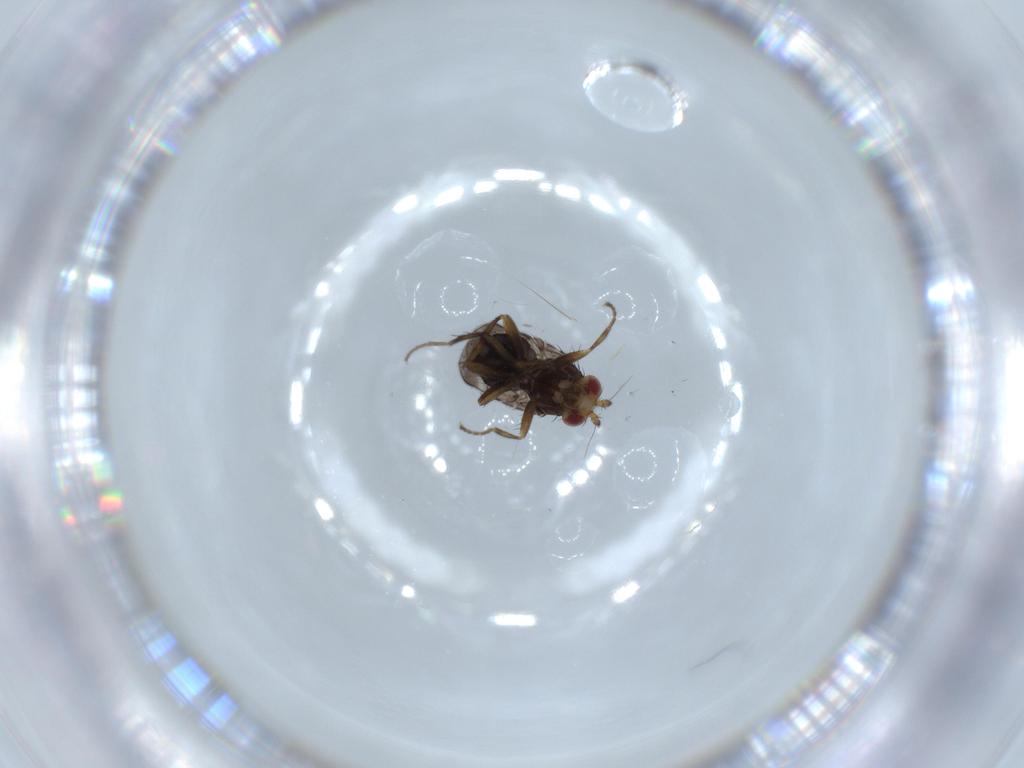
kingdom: Animalia
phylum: Arthropoda
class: Insecta
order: Diptera
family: Sphaeroceridae
